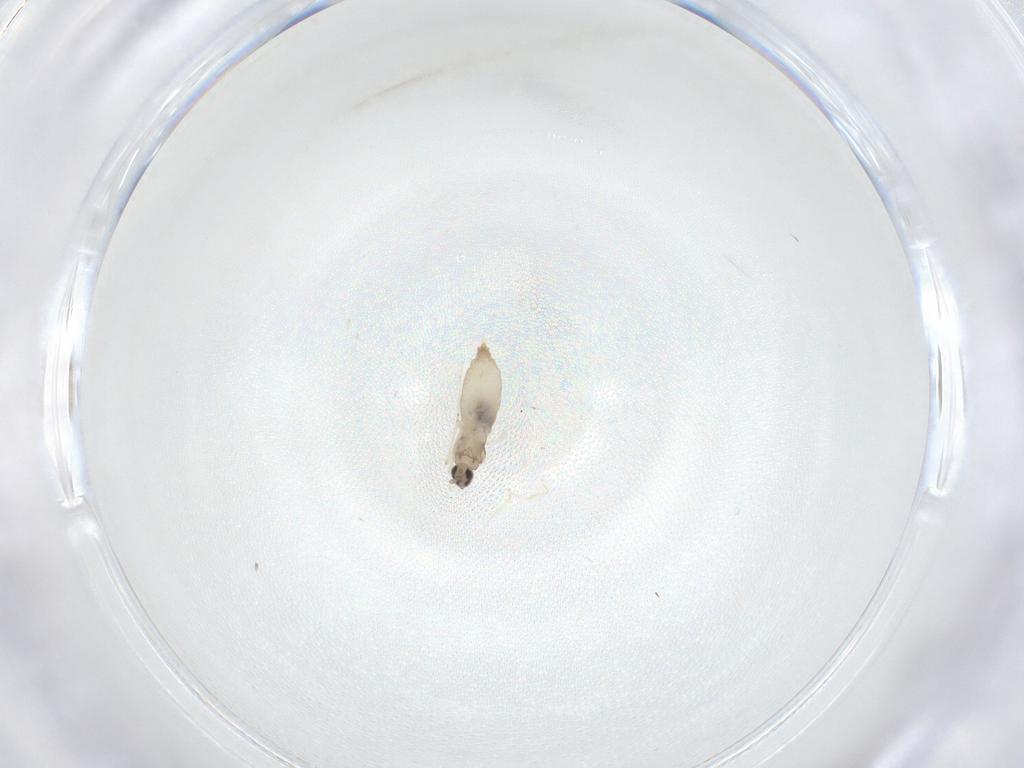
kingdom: Animalia
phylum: Arthropoda
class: Insecta
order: Diptera
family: Cecidomyiidae
